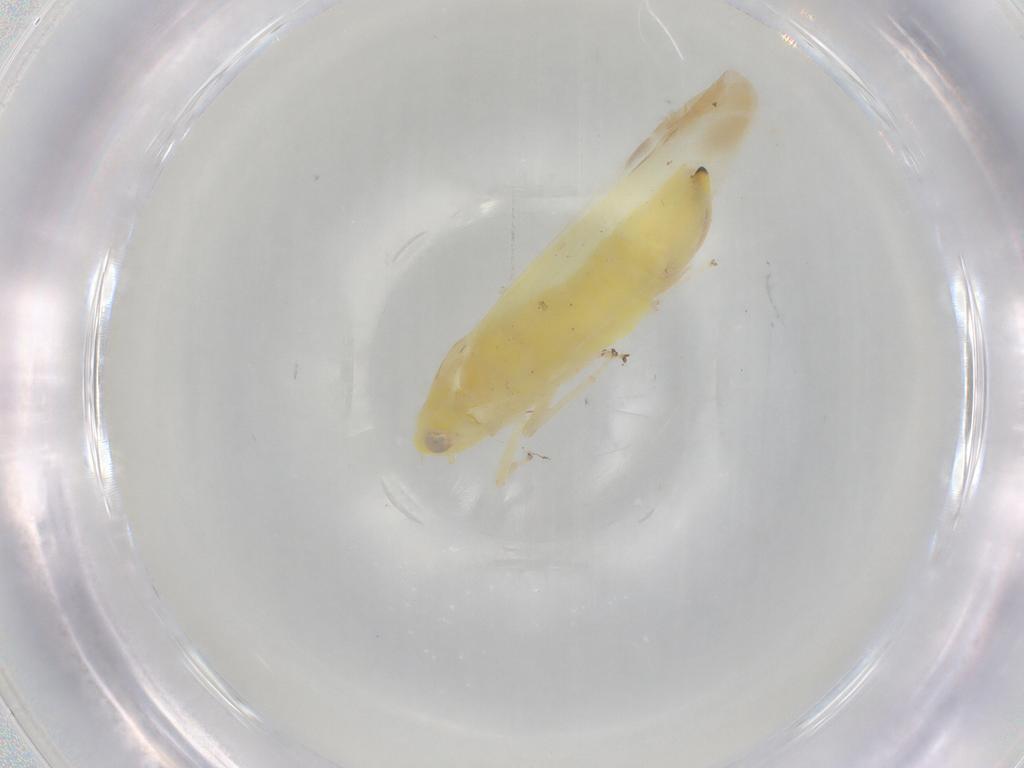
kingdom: Animalia
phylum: Arthropoda
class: Insecta
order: Hemiptera
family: Cicadellidae
